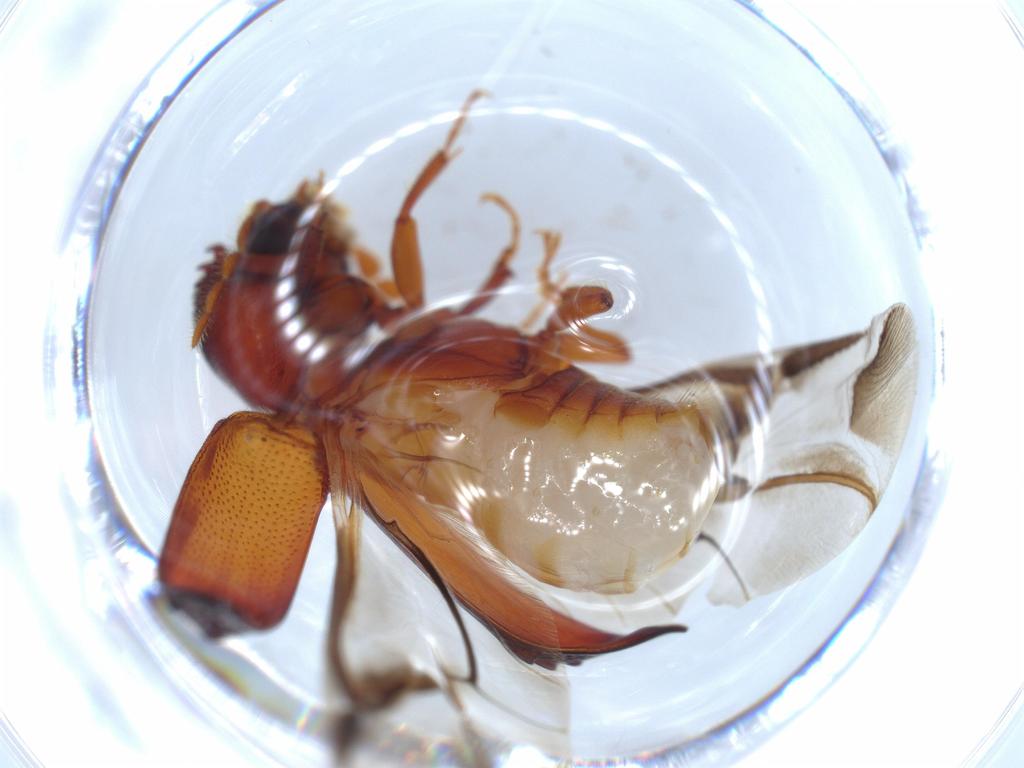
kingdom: Animalia
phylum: Arthropoda
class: Insecta
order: Coleoptera
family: Bostrichidae
